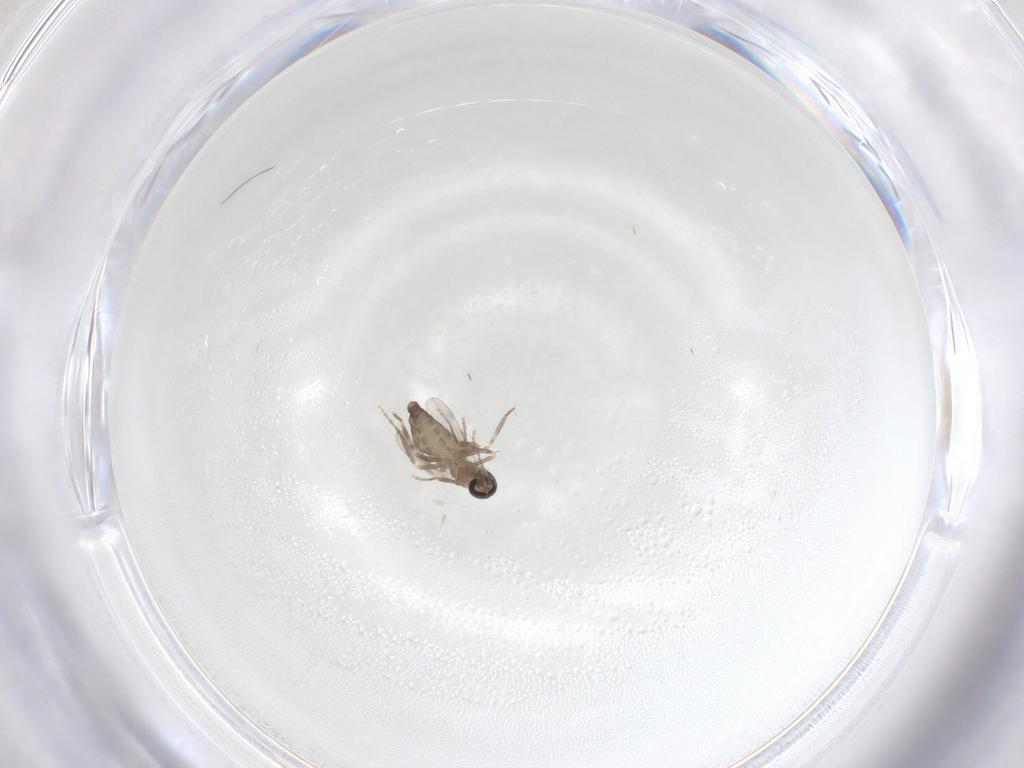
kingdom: Animalia
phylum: Arthropoda
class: Insecta
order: Diptera
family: Ceratopogonidae
